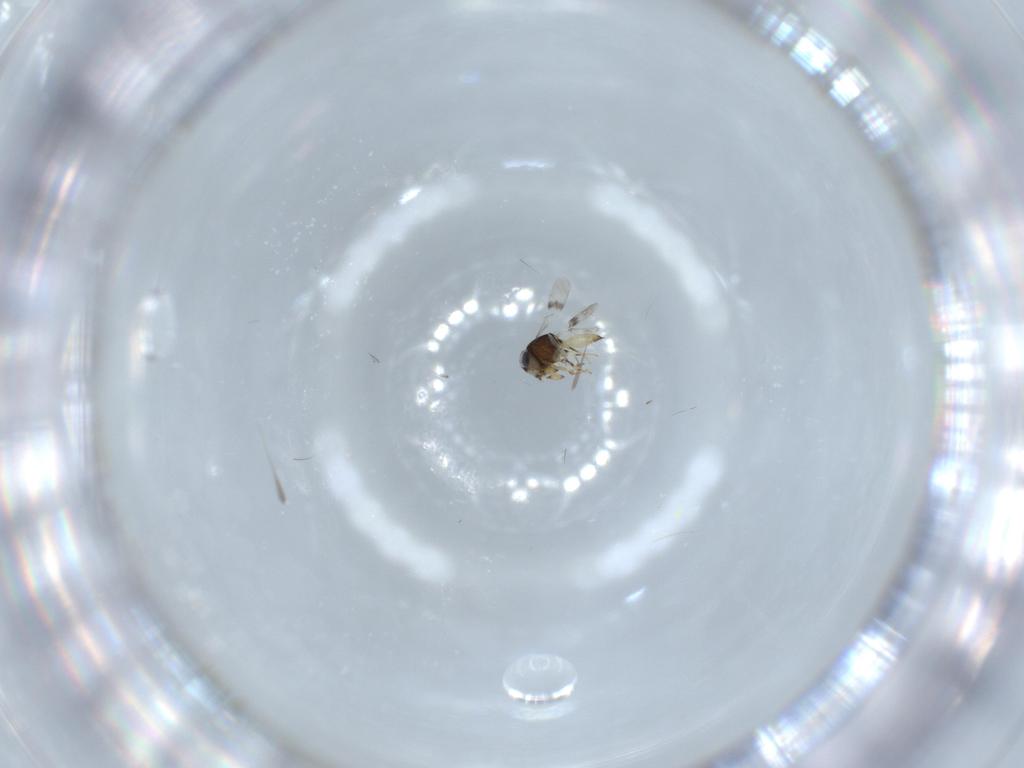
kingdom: Animalia
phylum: Arthropoda
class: Insecta
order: Hymenoptera
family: Scelionidae
